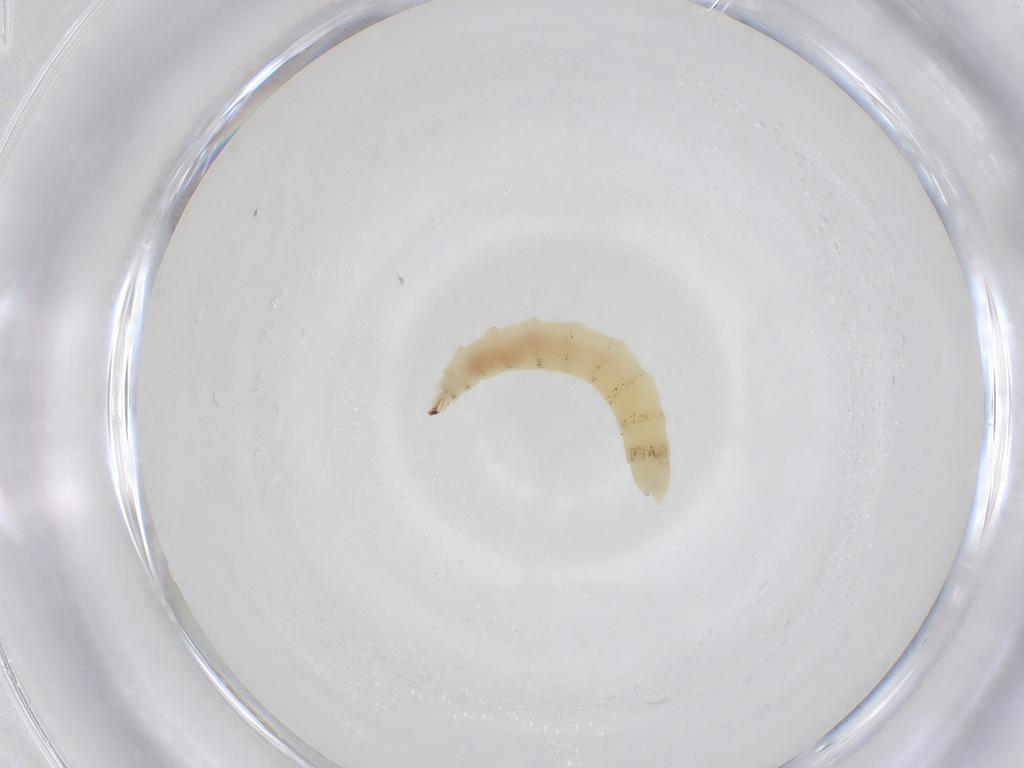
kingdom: Animalia
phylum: Arthropoda
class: Insecta
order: Diptera
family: Hybotidae
